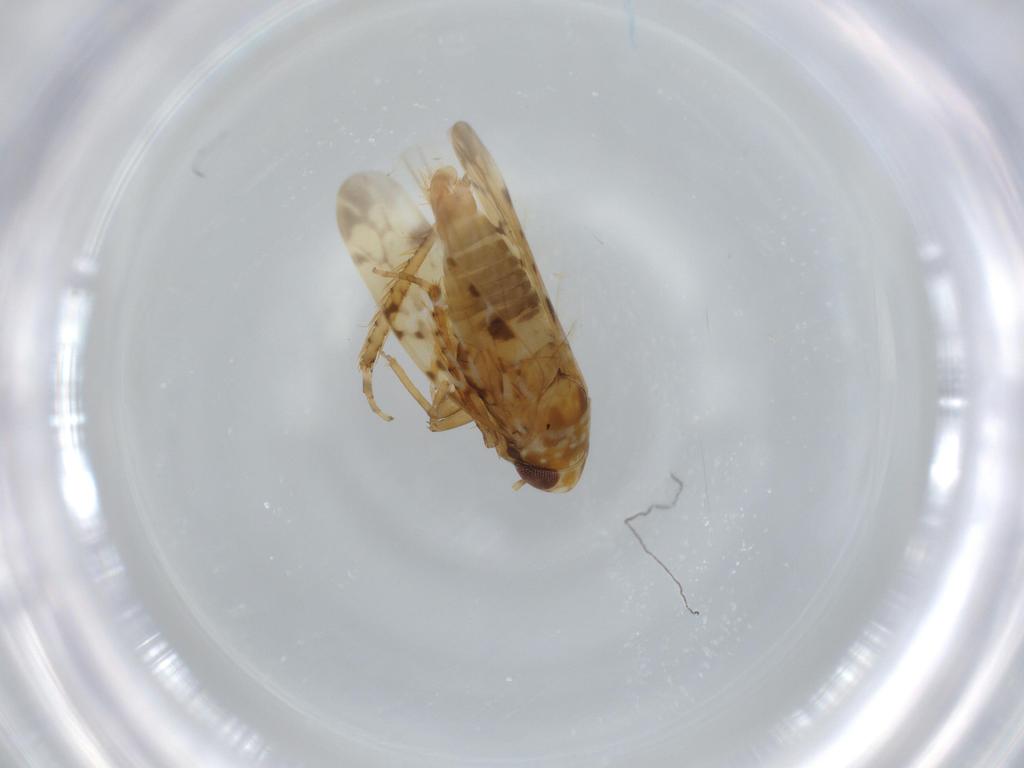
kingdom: Animalia
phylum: Arthropoda
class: Insecta
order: Hemiptera
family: Cicadellidae
